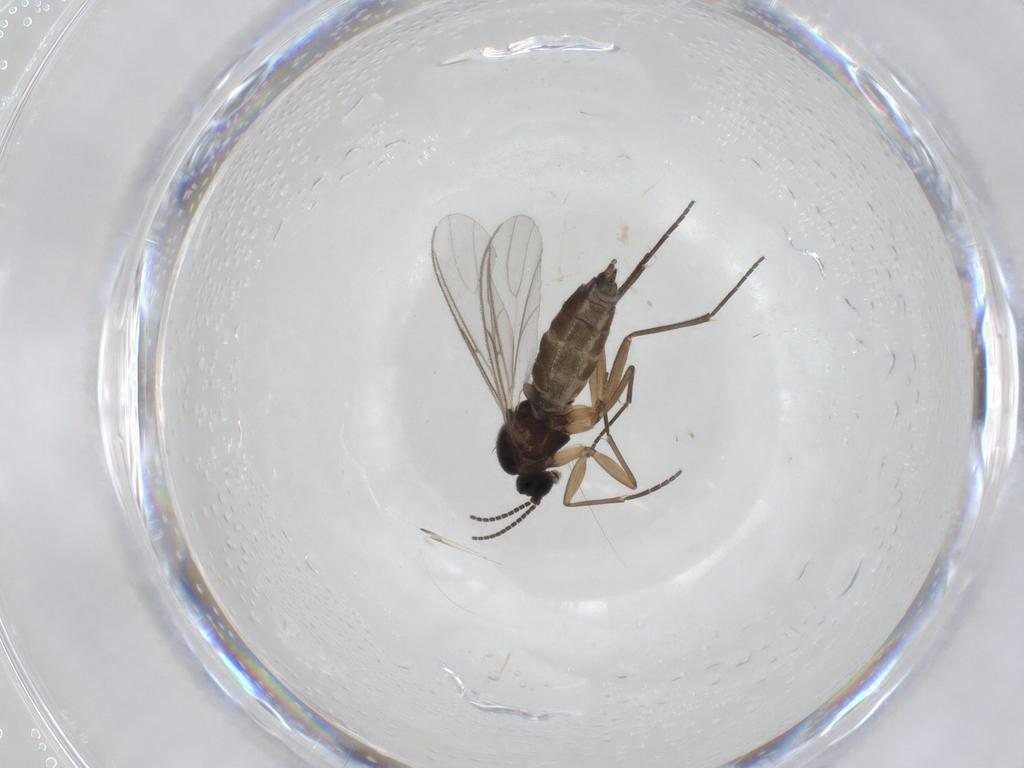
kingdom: Animalia
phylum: Arthropoda
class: Insecta
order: Diptera
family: Sciaridae
